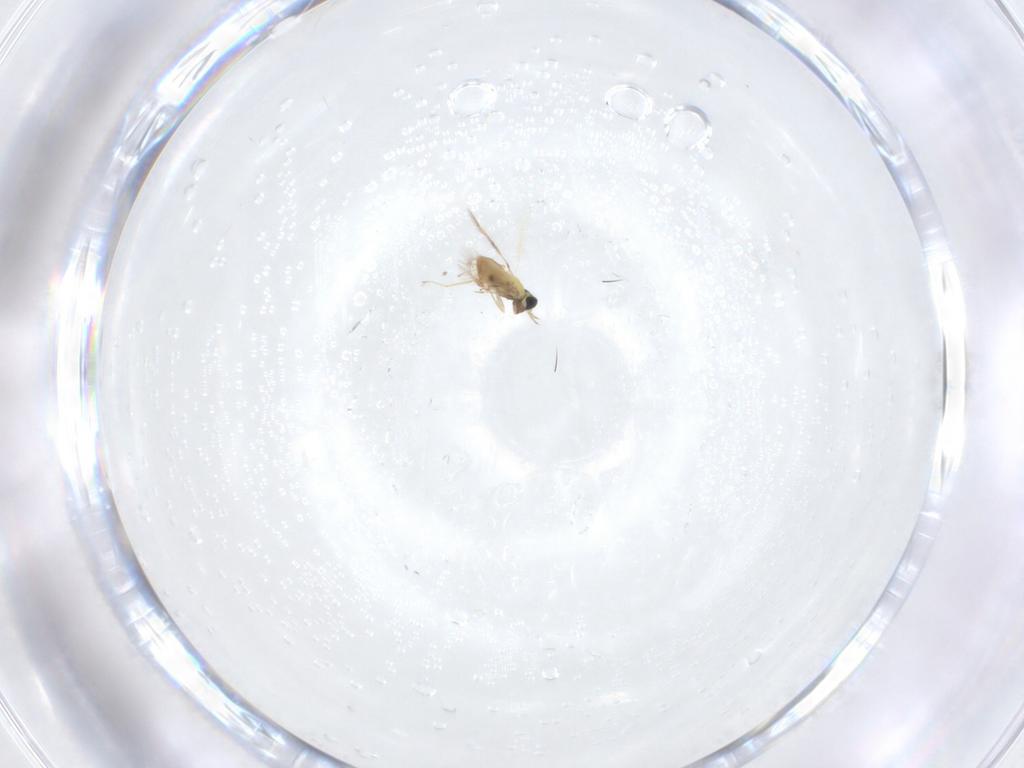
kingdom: Animalia
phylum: Arthropoda
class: Insecta
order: Hymenoptera
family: Trichogrammatidae
